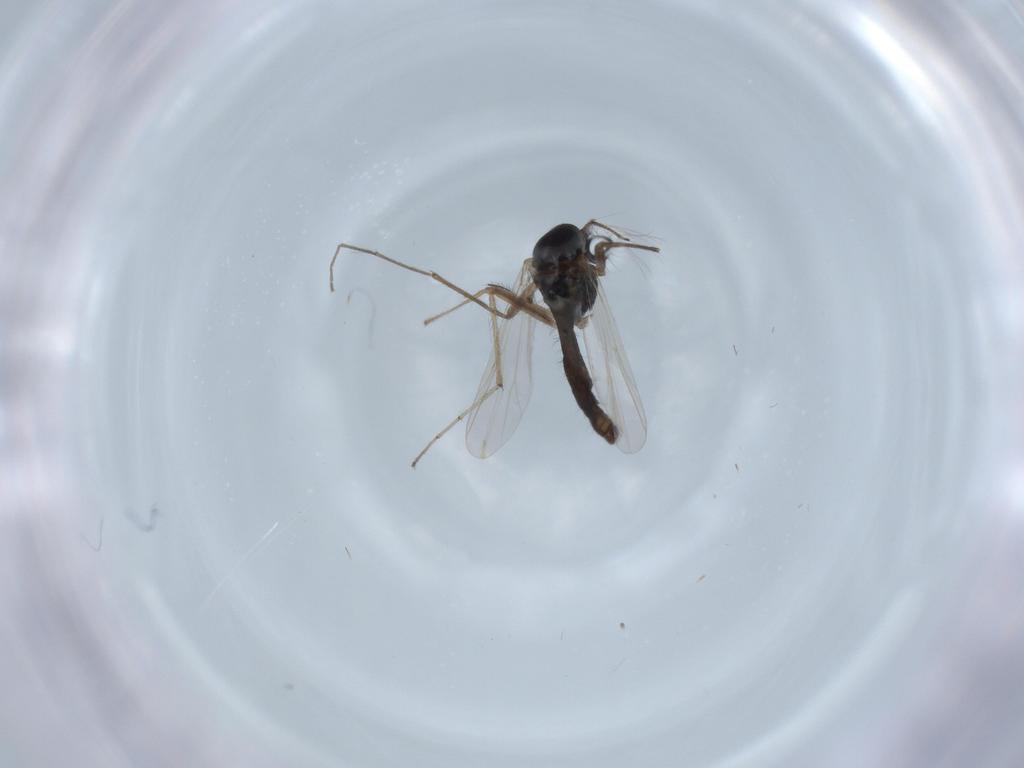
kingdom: Animalia
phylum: Arthropoda
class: Insecta
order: Diptera
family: Chironomidae
